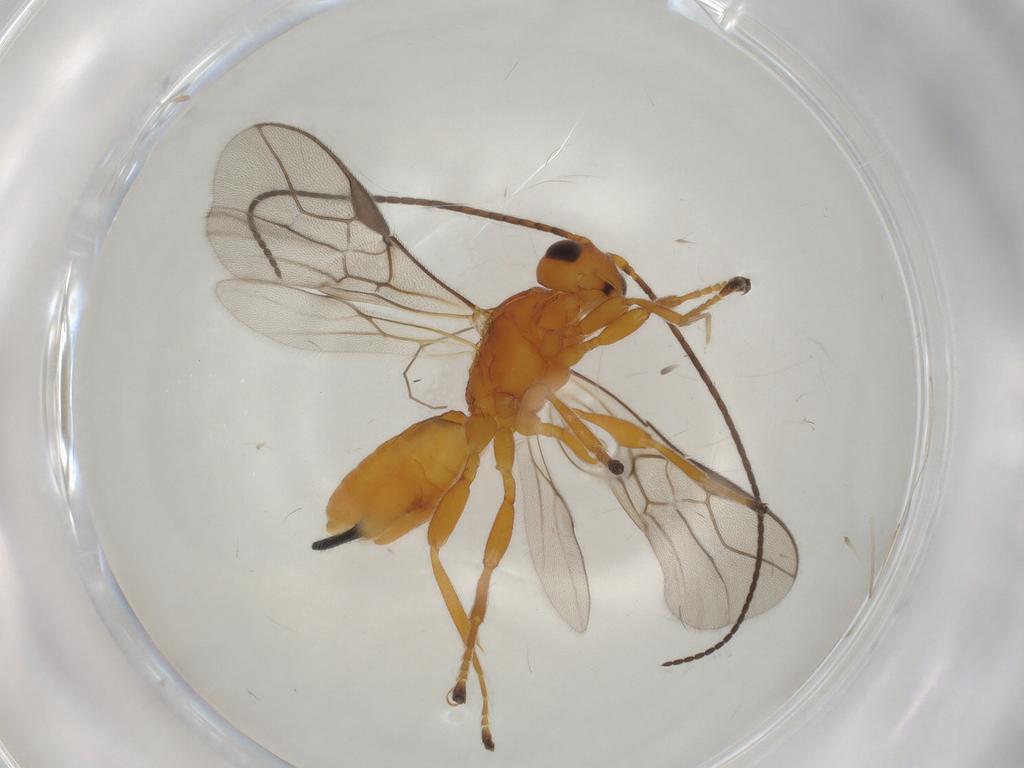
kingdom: Animalia
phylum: Arthropoda
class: Insecta
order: Hymenoptera
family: Braconidae
